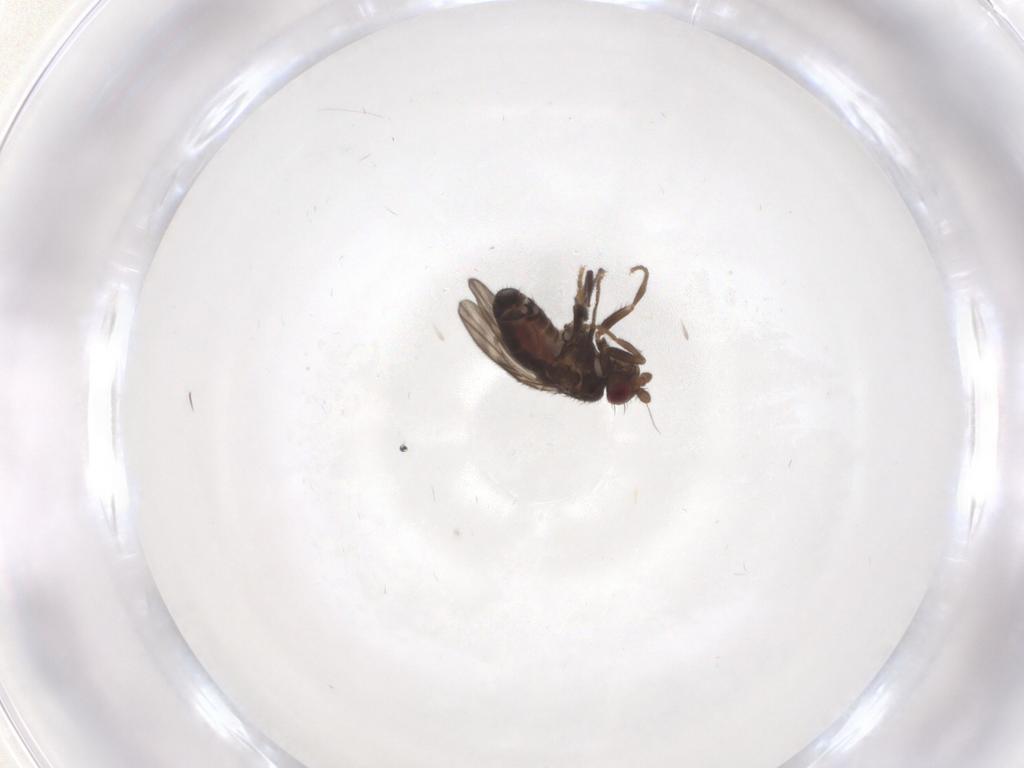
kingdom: Animalia
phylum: Arthropoda
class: Insecta
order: Diptera
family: Sphaeroceridae
